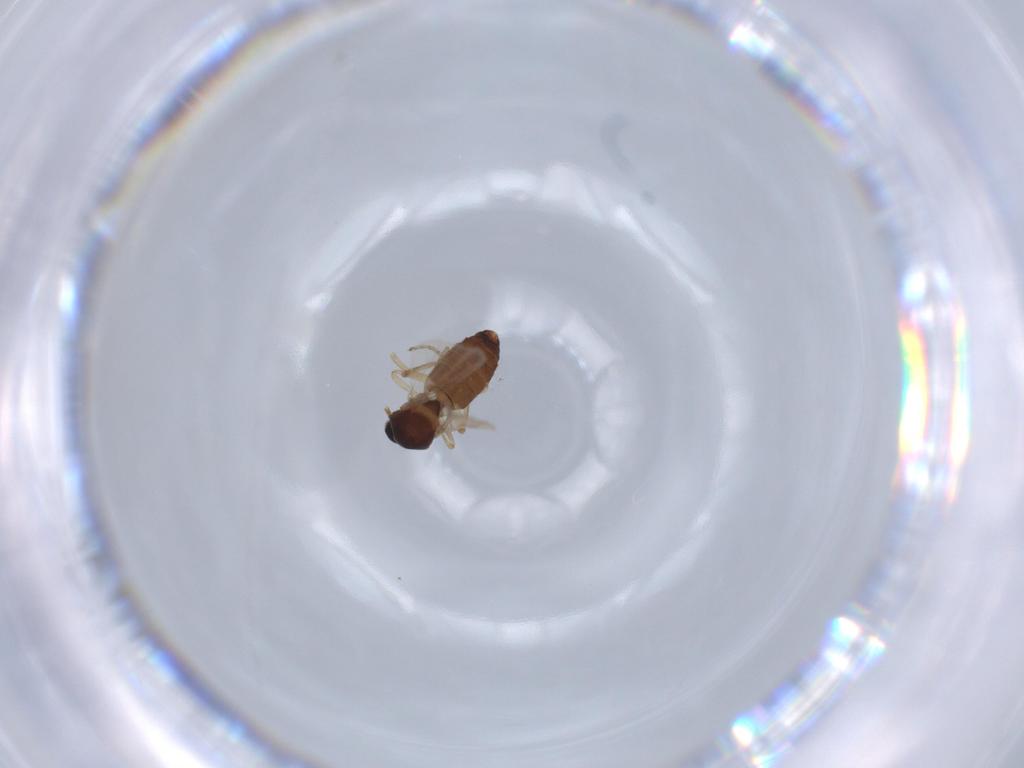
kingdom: Animalia
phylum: Arthropoda
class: Insecta
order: Diptera
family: Ceratopogonidae
